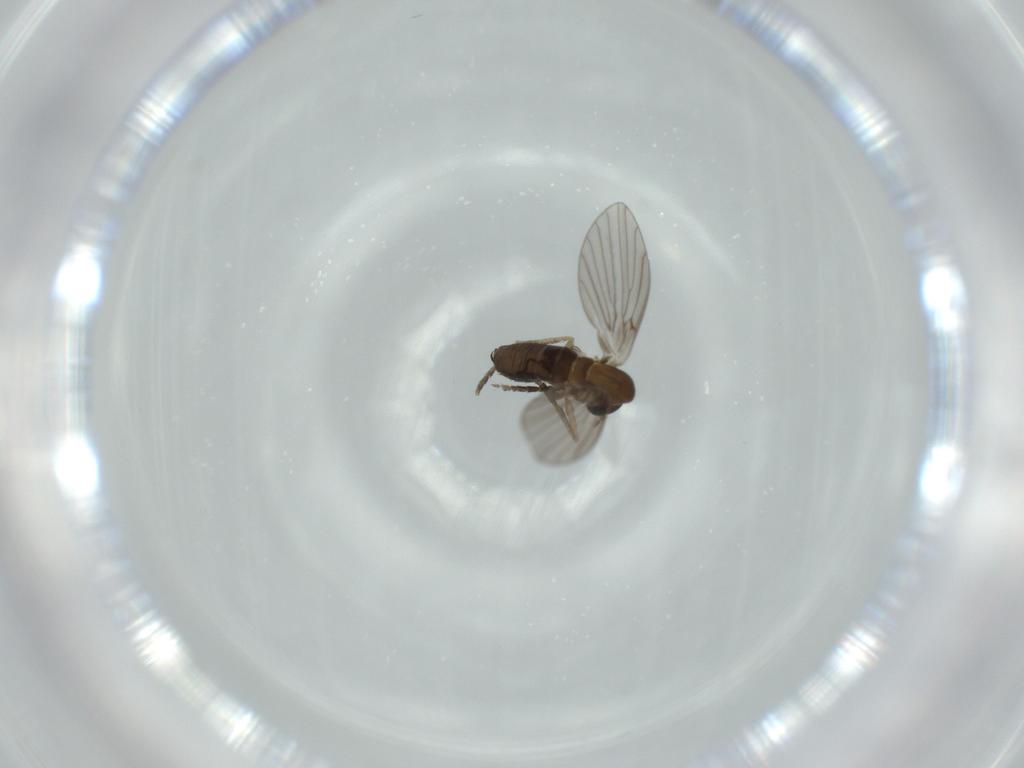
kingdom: Animalia
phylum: Arthropoda
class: Insecta
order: Diptera
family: Psychodidae
